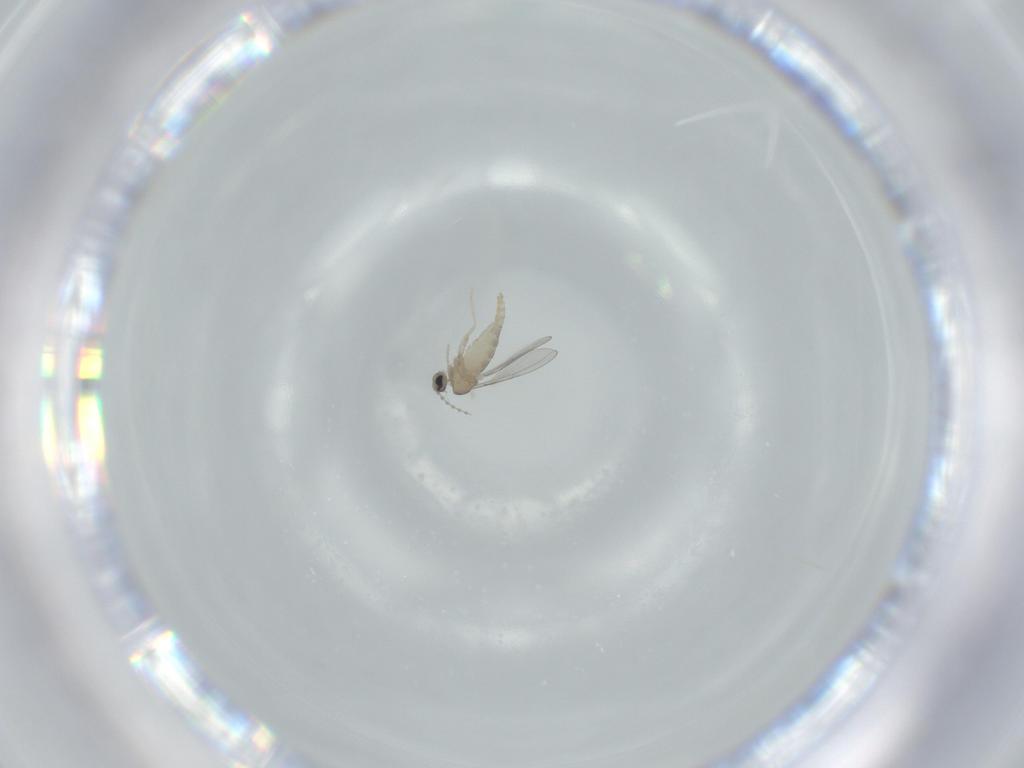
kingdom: Animalia
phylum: Arthropoda
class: Insecta
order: Diptera
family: Cecidomyiidae
